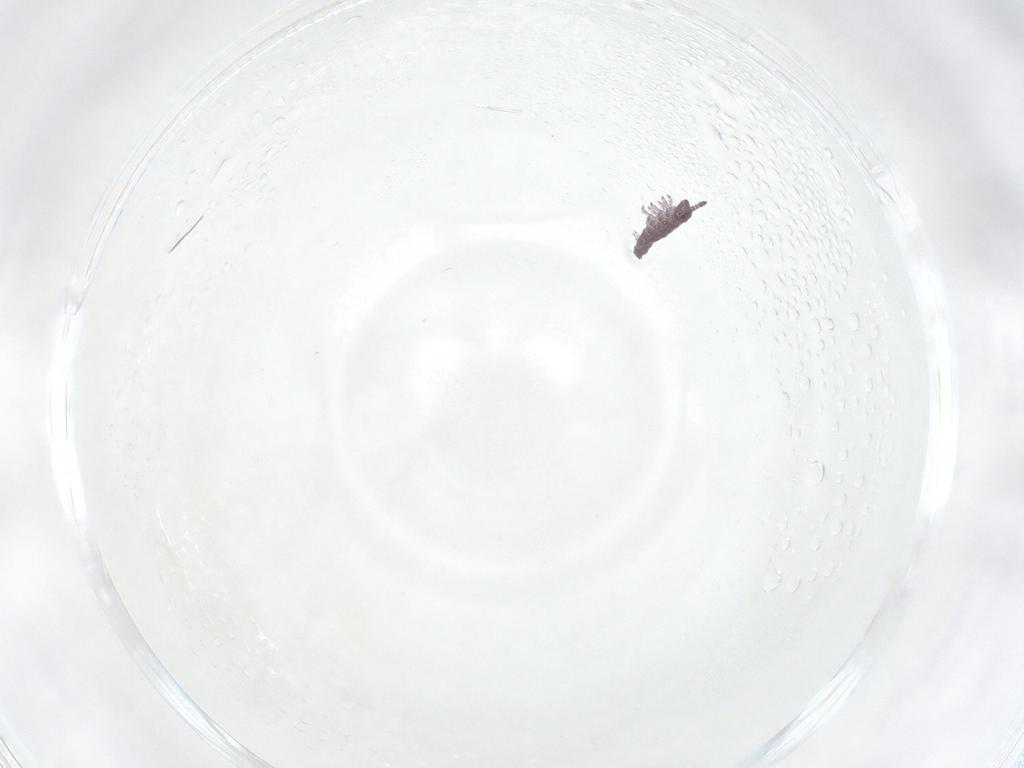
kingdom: Animalia
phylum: Arthropoda
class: Collembola
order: Poduromorpha
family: Hypogastruridae
